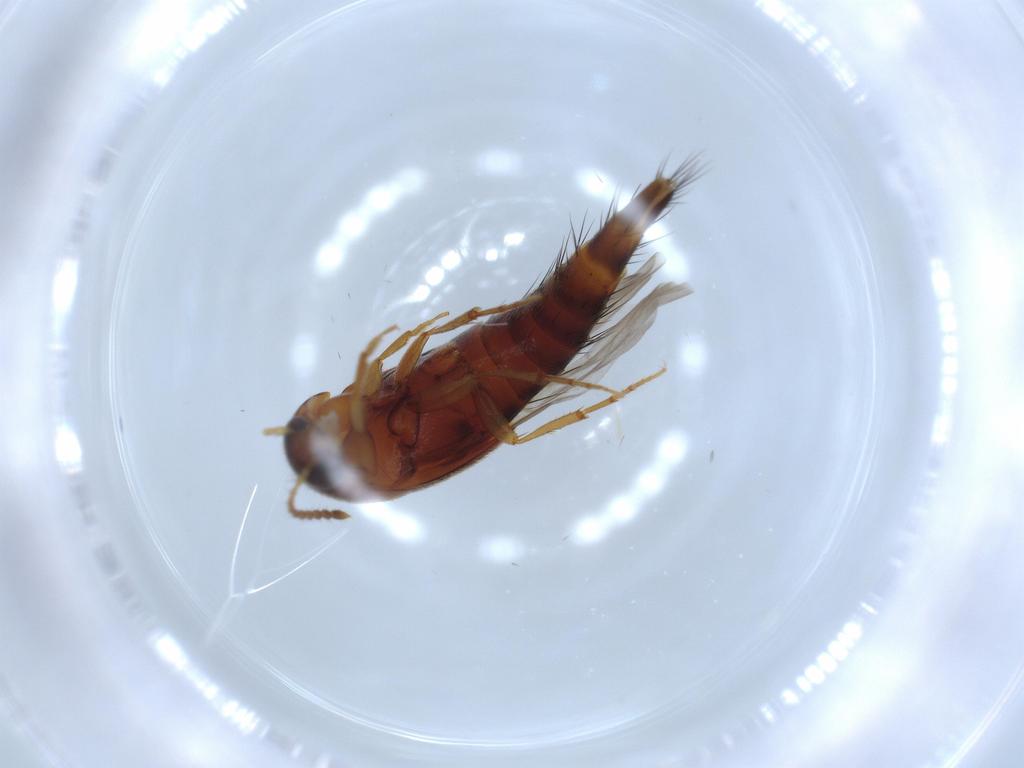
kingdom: Animalia
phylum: Arthropoda
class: Insecta
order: Coleoptera
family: Staphylinidae
